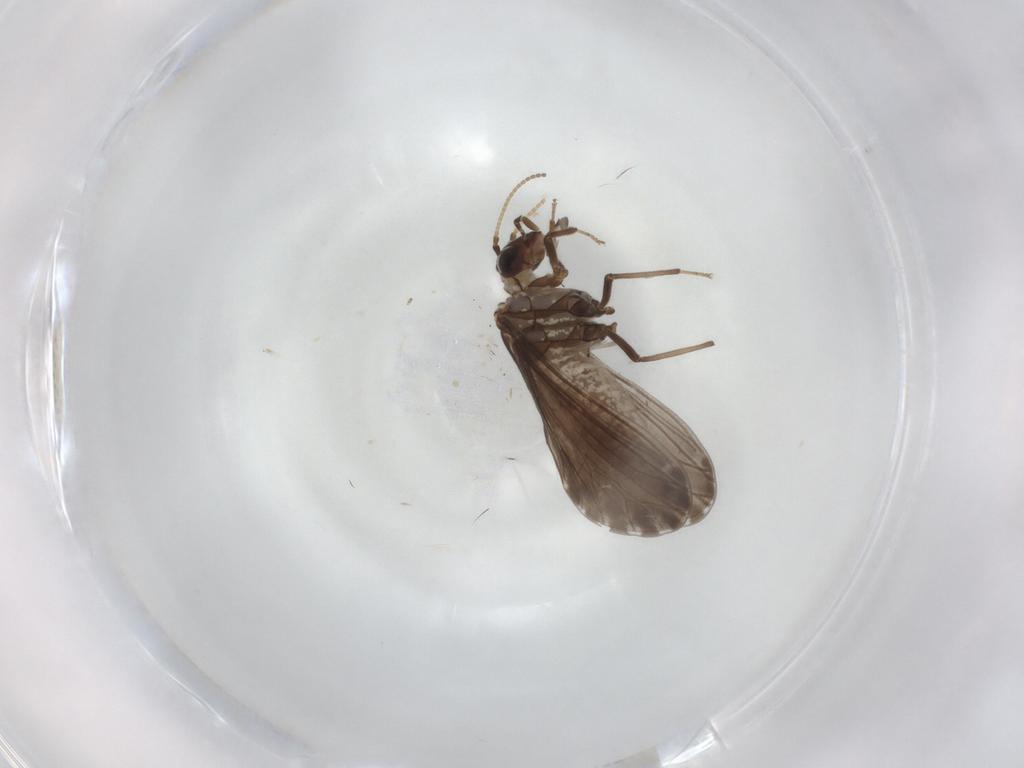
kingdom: Animalia
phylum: Arthropoda
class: Insecta
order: Neuroptera
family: Coniopterygidae
